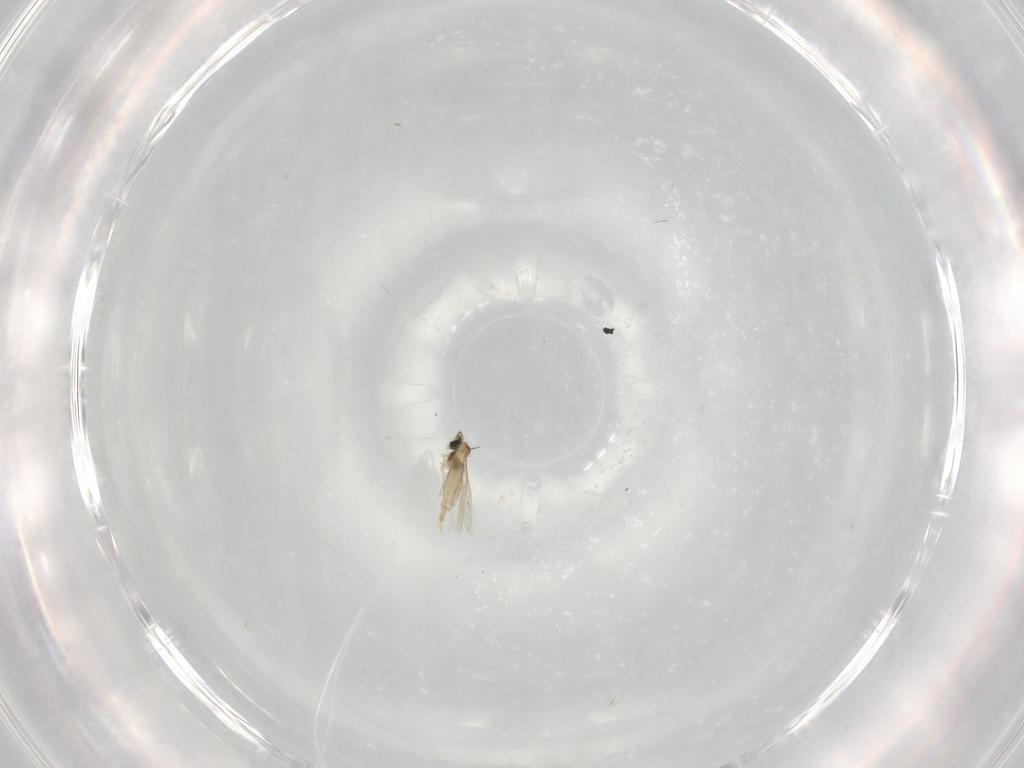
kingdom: Animalia
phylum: Arthropoda
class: Insecta
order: Diptera
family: Cecidomyiidae
